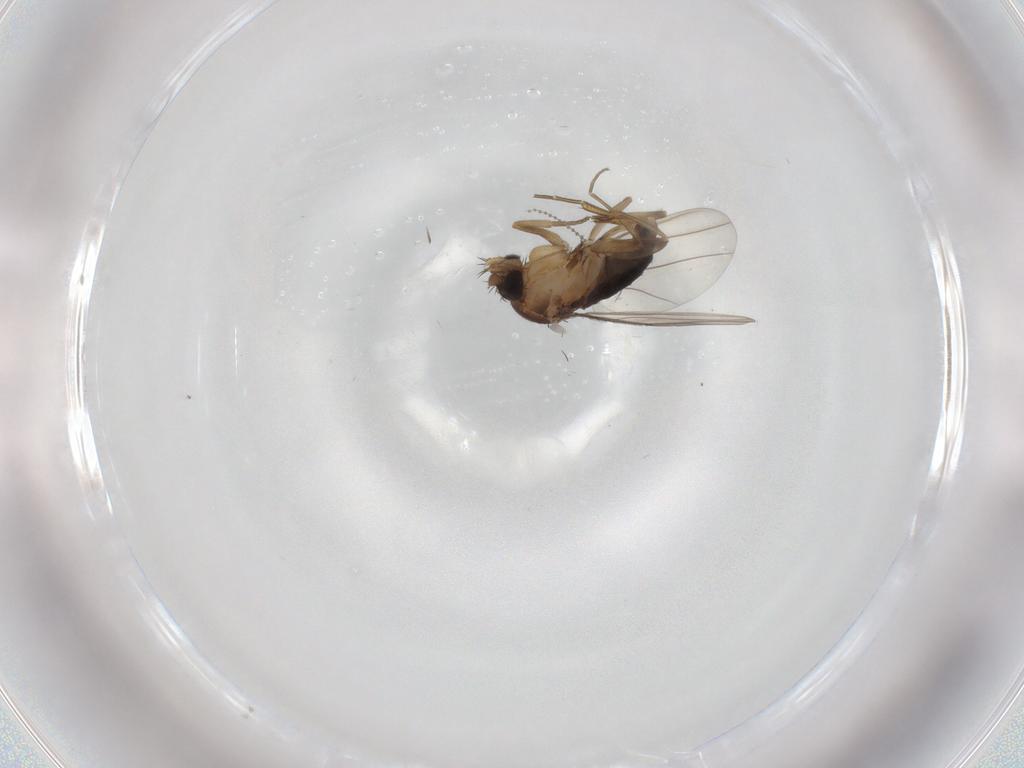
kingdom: Animalia
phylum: Arthropoda
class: Insecta
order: Diptera
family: Phoridae
